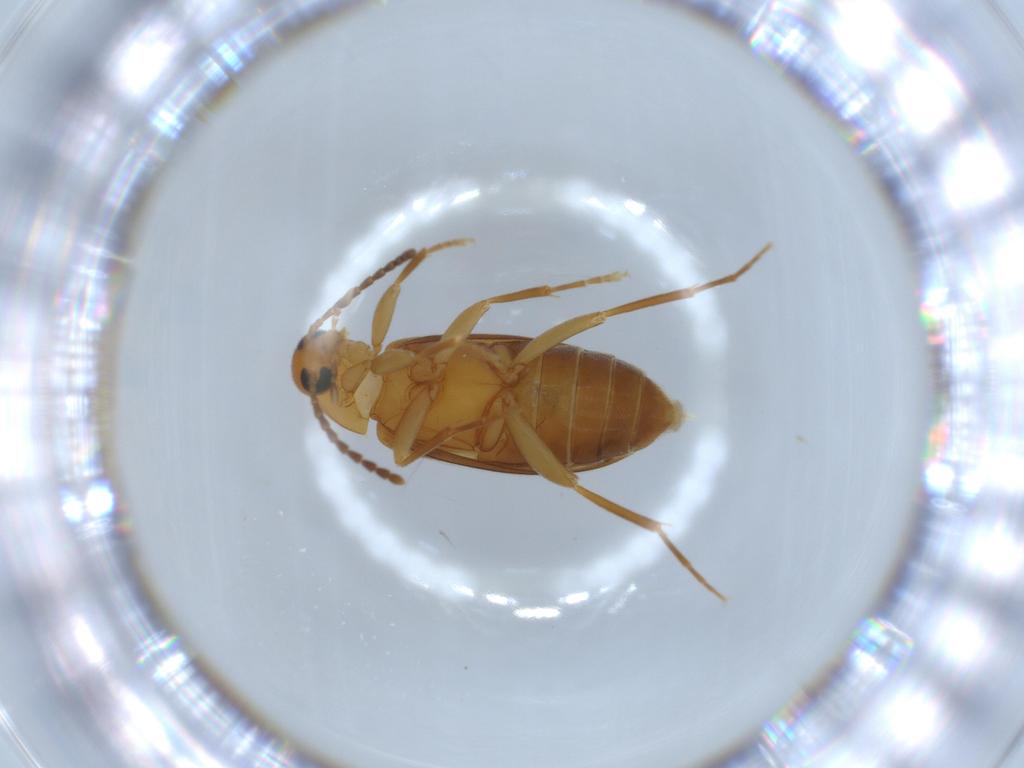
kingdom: Animalia
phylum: Arthropoda
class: Insecta
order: Coleoptera
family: Scraptiidae
